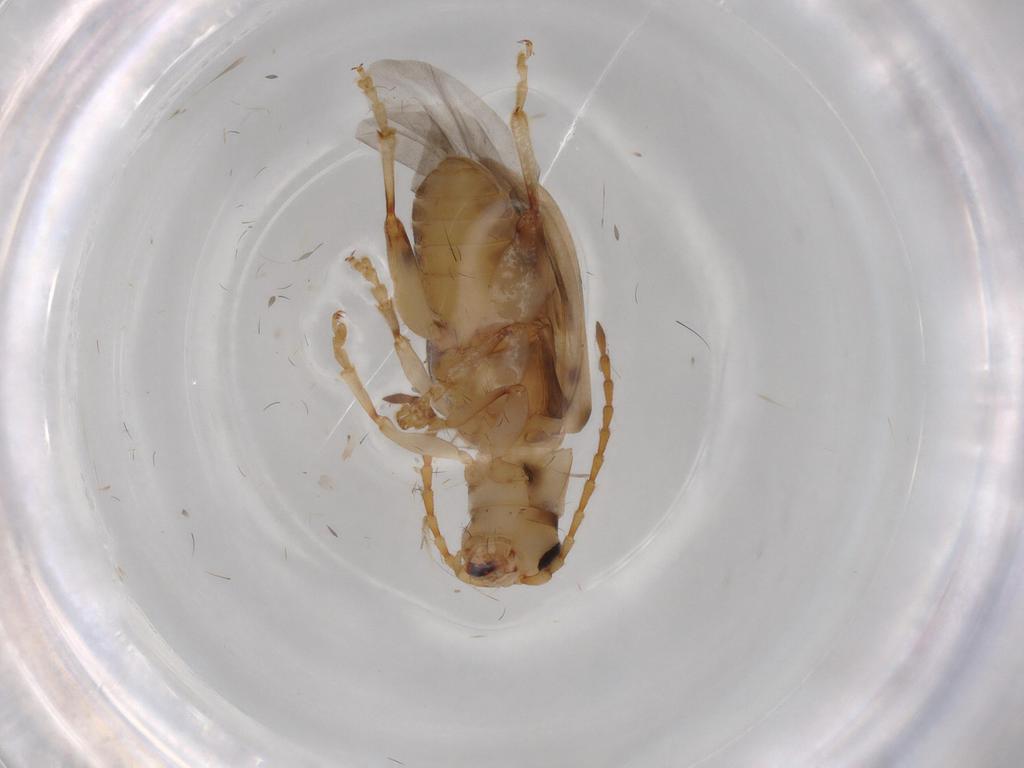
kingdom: Animalia
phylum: Arthropoda
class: Insecta
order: Coleoptera
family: Chrysomelidae
